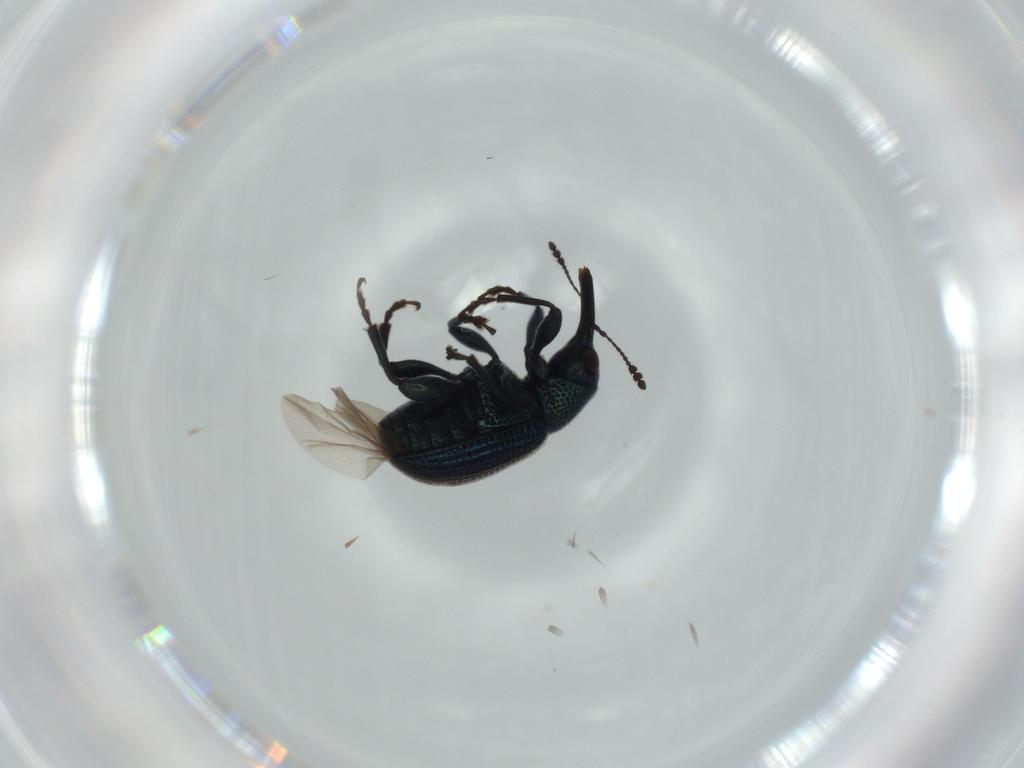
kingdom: Animalia
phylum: Arthropoda
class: Insecta
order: Coleoptera
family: Attelabidae
